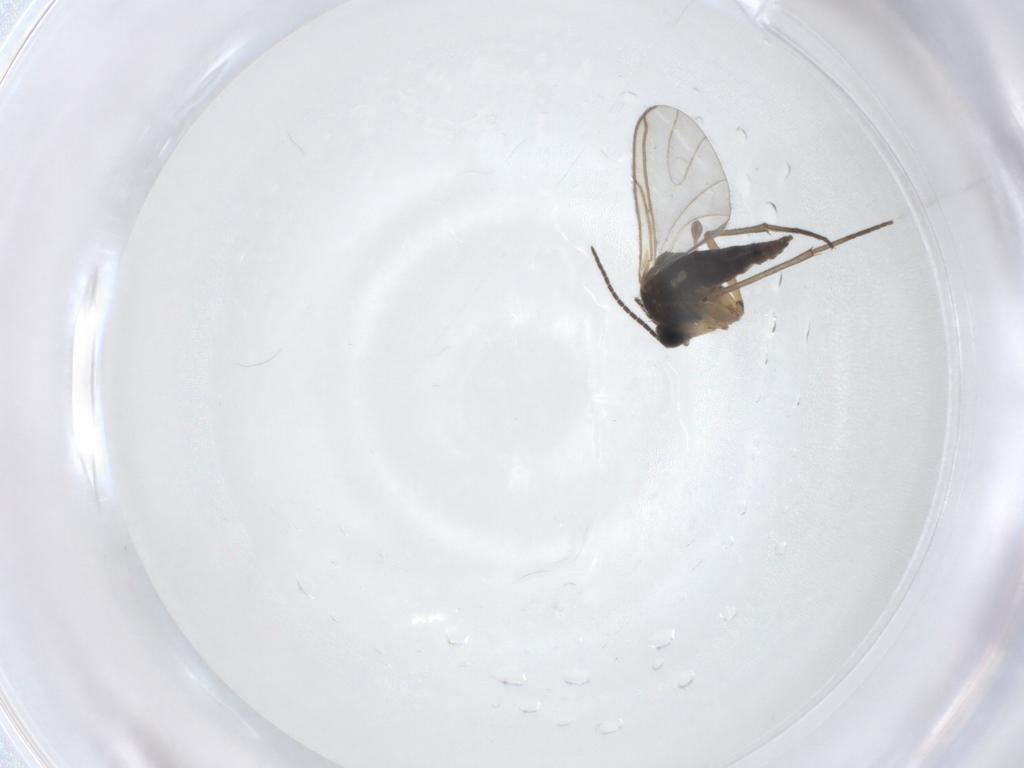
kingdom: Animalia
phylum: Arthropoda
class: Insecta
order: Diptera
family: Sciaridae
